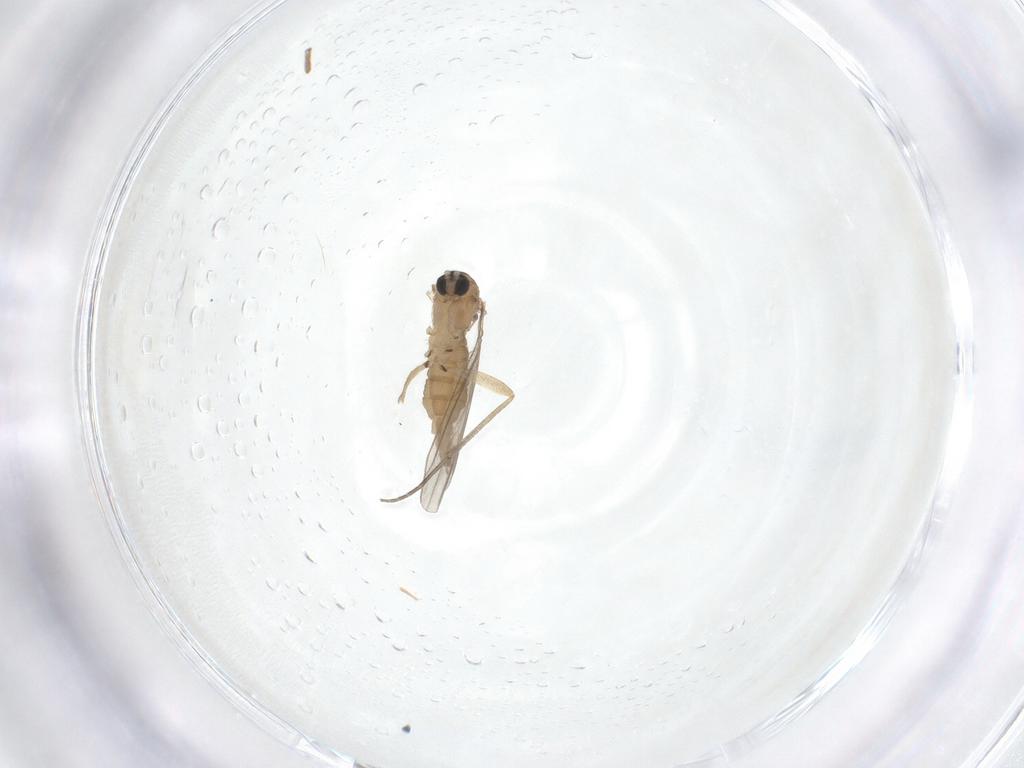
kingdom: Animalia
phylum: Arthropoda
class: Insecta
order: Diptera
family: Sciaridae
